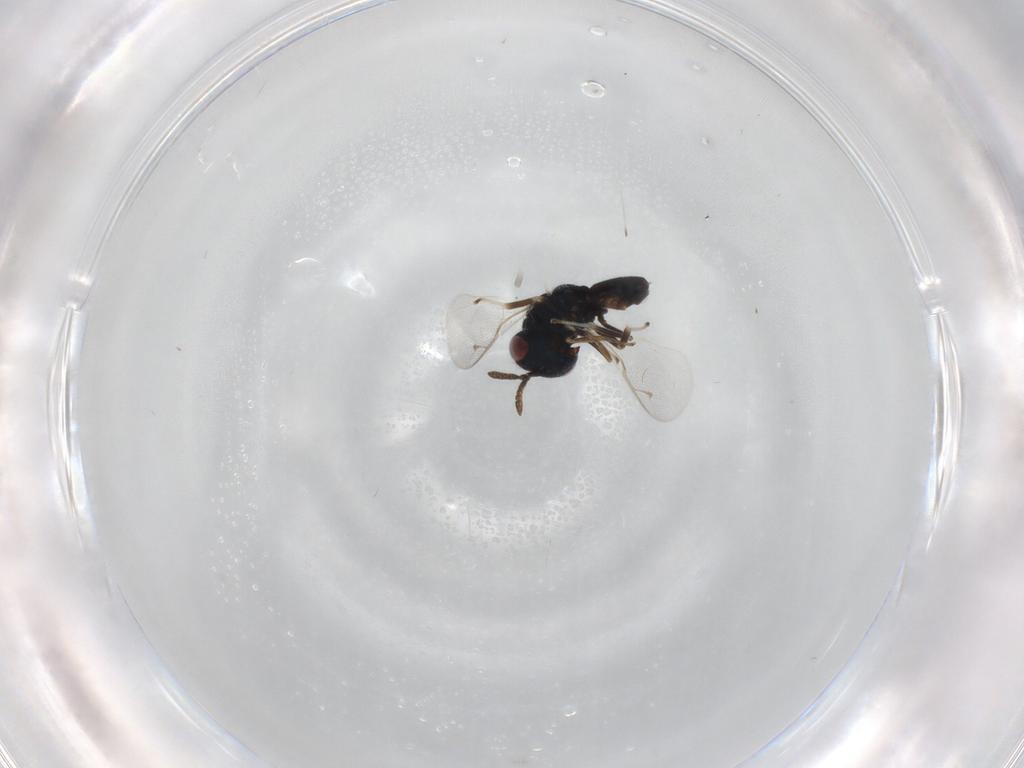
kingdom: Animalia
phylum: Arthropoda
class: Insecta
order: Hymenoptera
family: Pteromalidae
